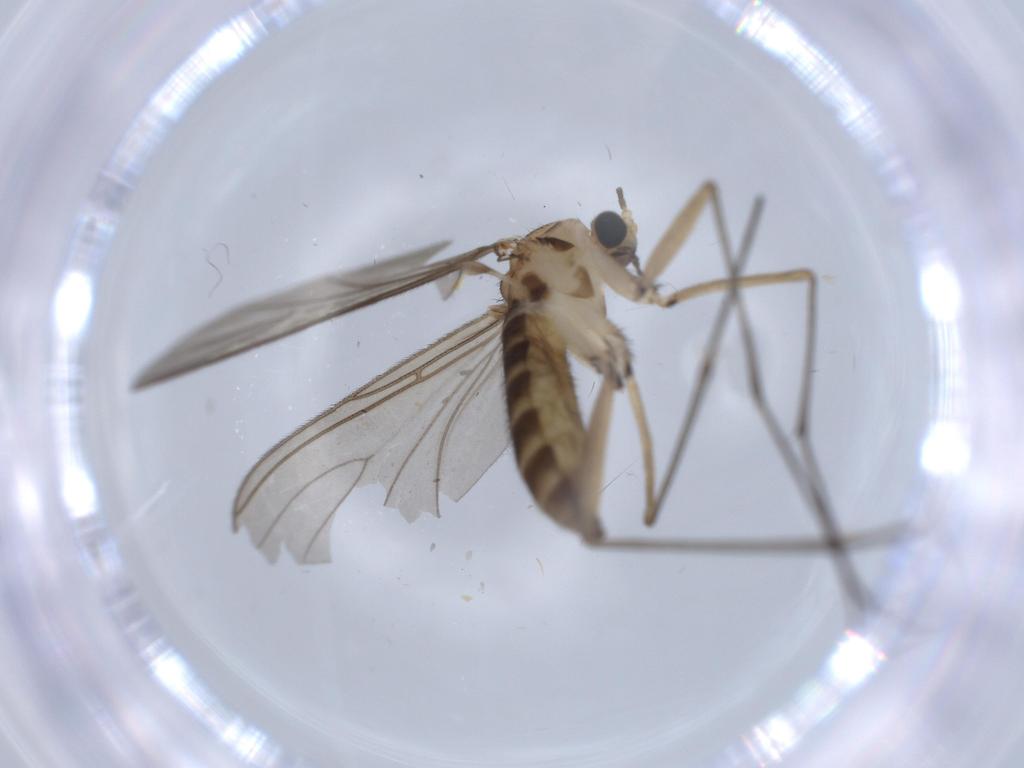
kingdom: Animalia
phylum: Arthropoda
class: Insecta
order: Diptera
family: Sciaridae
